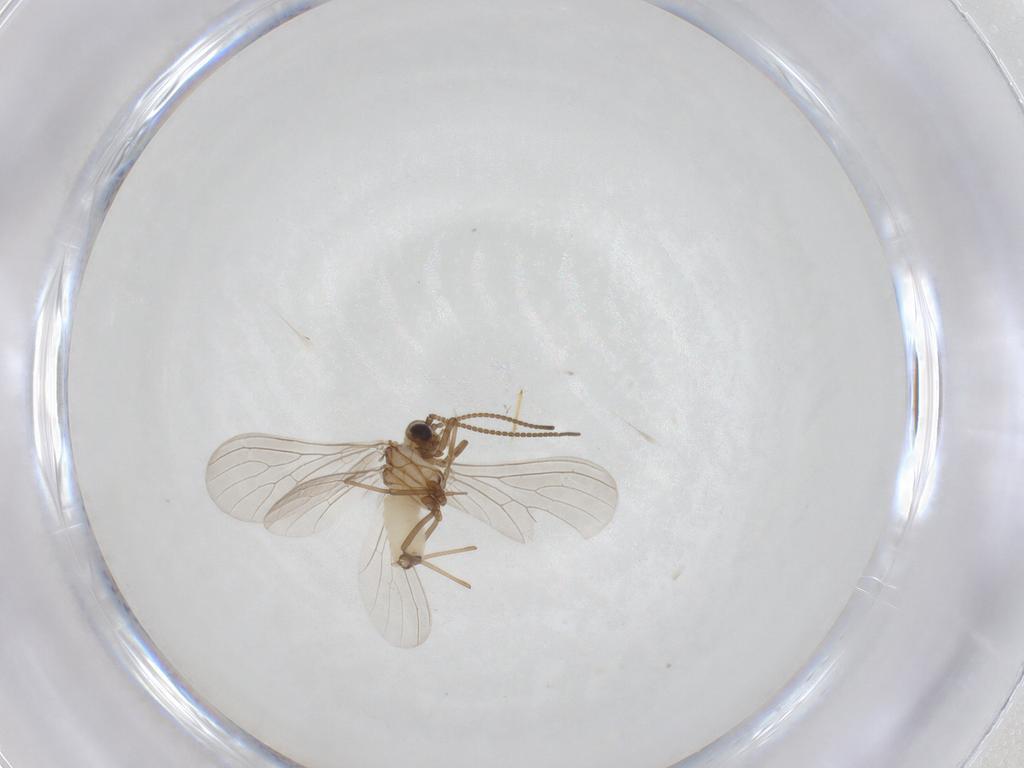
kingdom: Animalia
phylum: Arthropoda
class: Insecta
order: Neuroptera
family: Coniopterygidae
